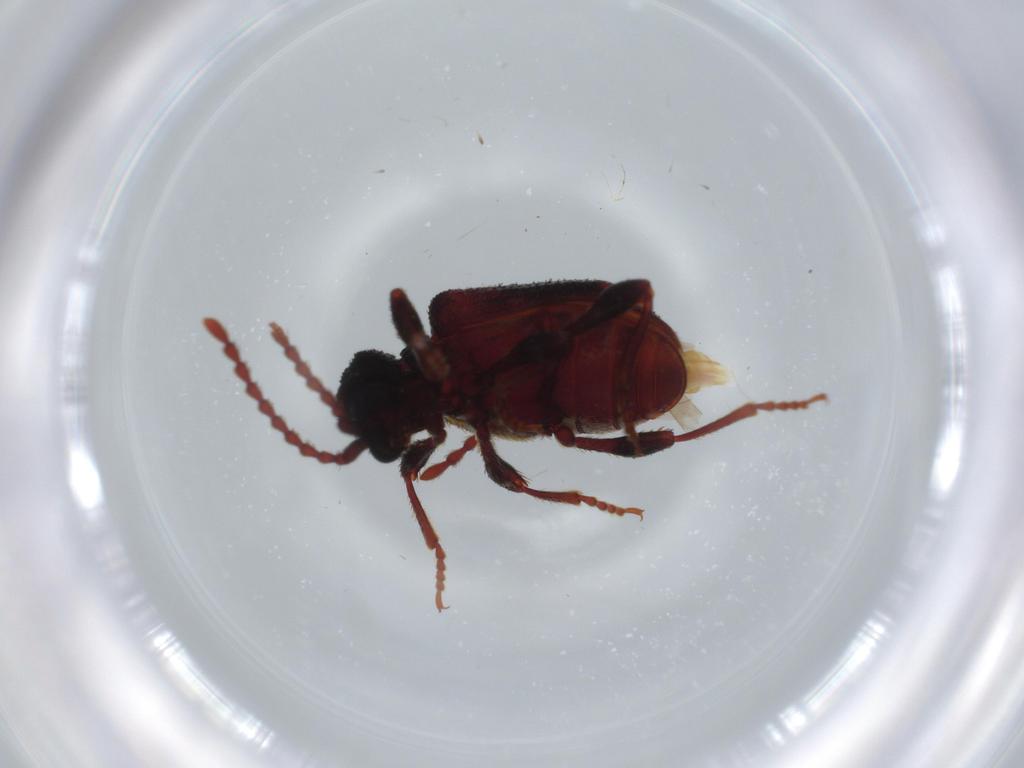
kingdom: Animalia
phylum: Arthropoda
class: Insecta
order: Coleoptera
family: Ptinidae
